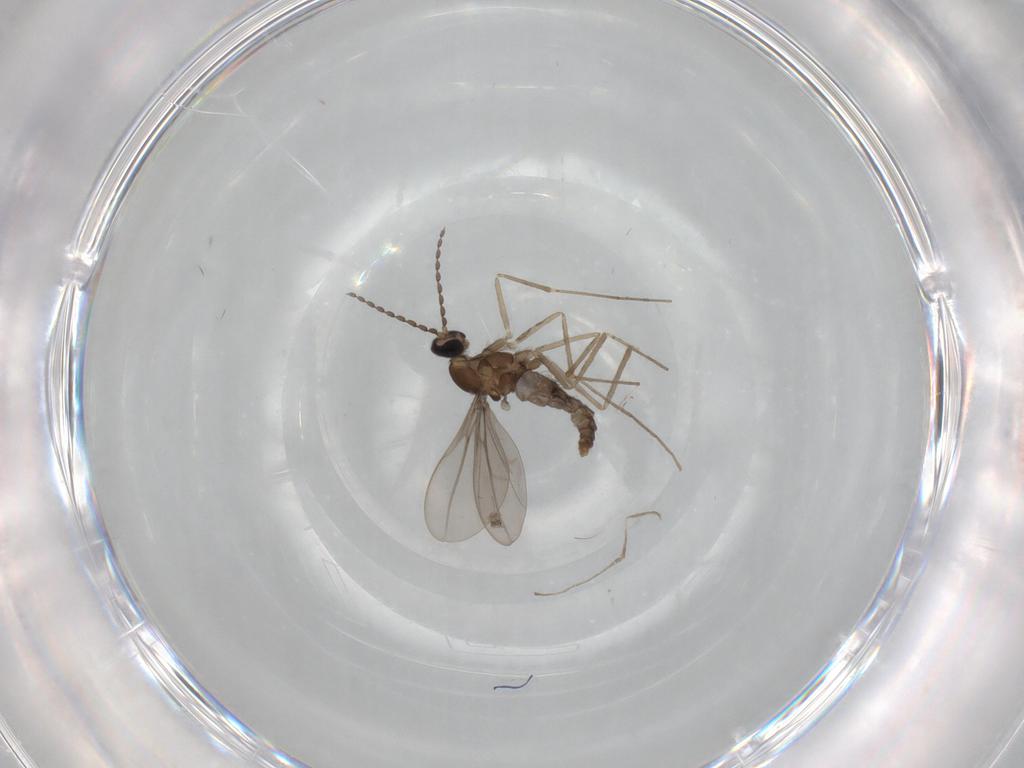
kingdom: Animalia
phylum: Arthropoda
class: Insecta
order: Diptera
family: Cecidomyiidae
